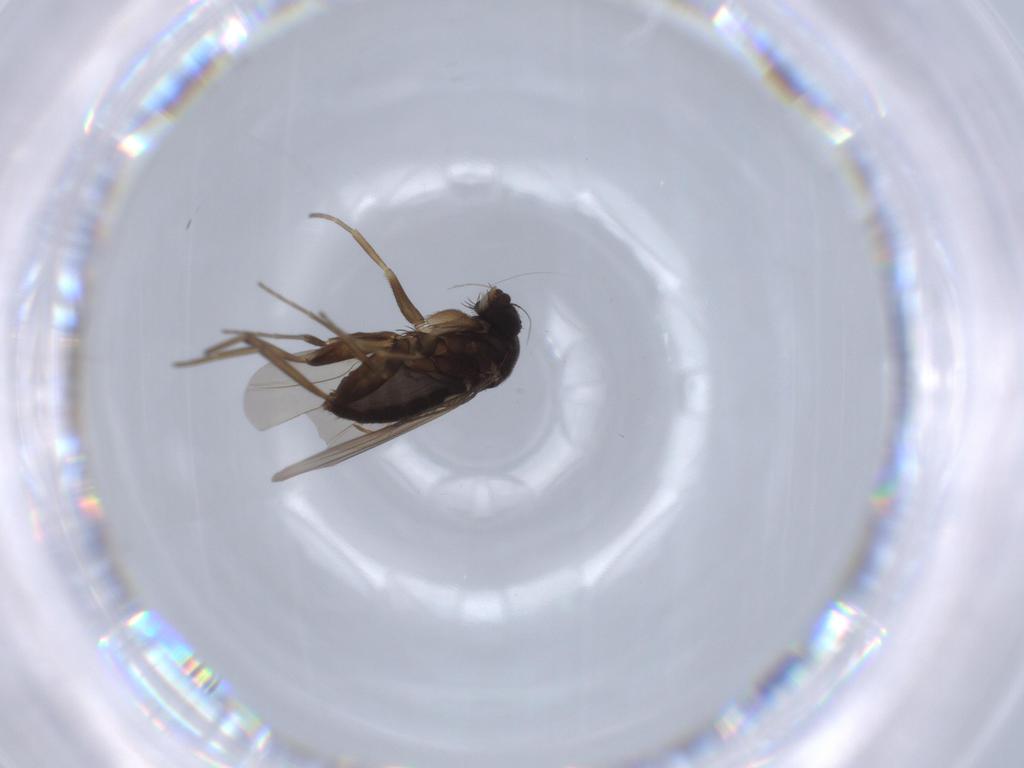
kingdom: Animalia
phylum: Arthropoda
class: Insecta
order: Diptera
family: Phoridae
